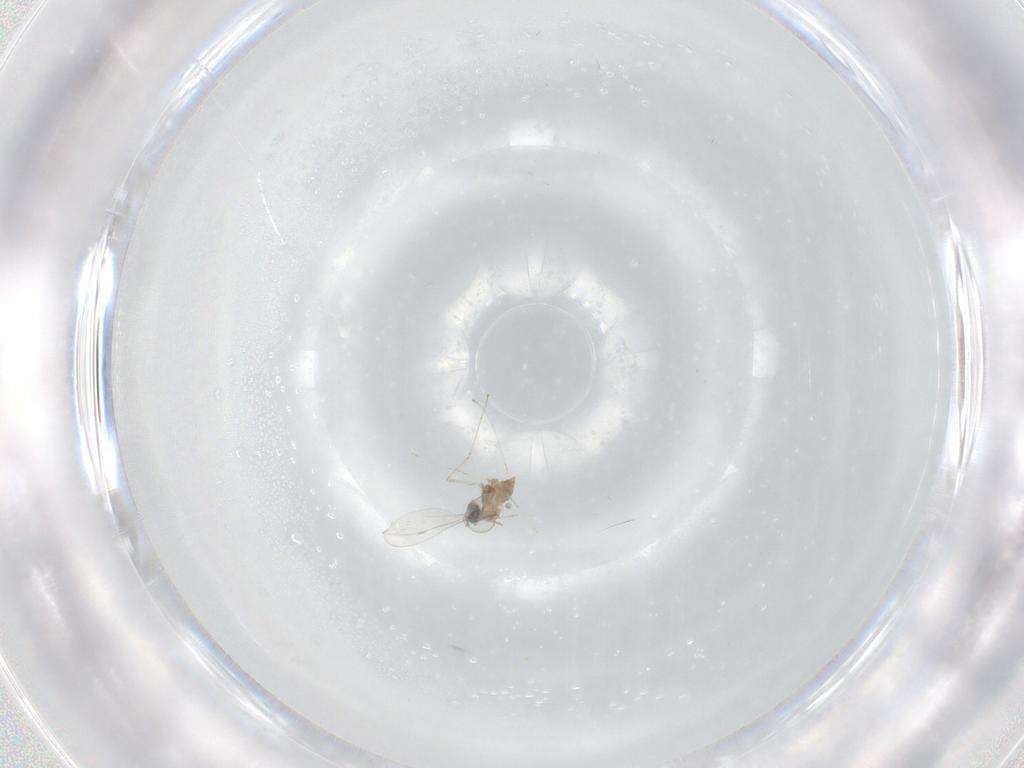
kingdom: Animalia
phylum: Arthropoda
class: Insecta
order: Diptera
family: Cecidomyiidae
